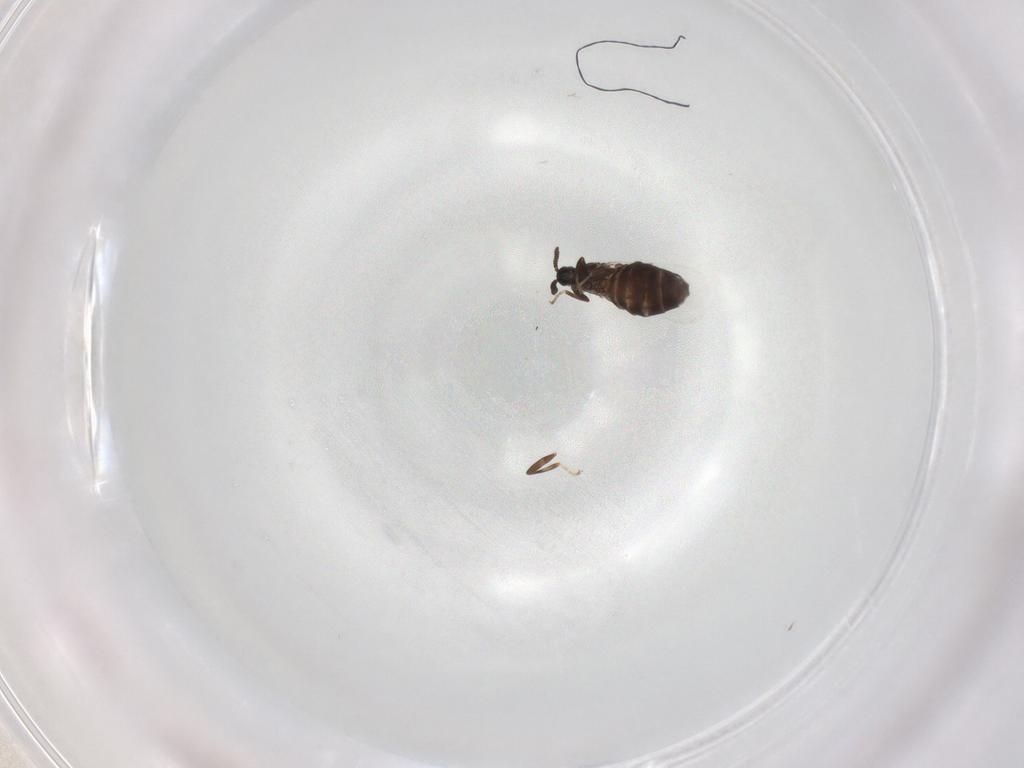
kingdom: Animalia
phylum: Arthropoda
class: Insecta
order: Diptera
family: Scatopsidae
